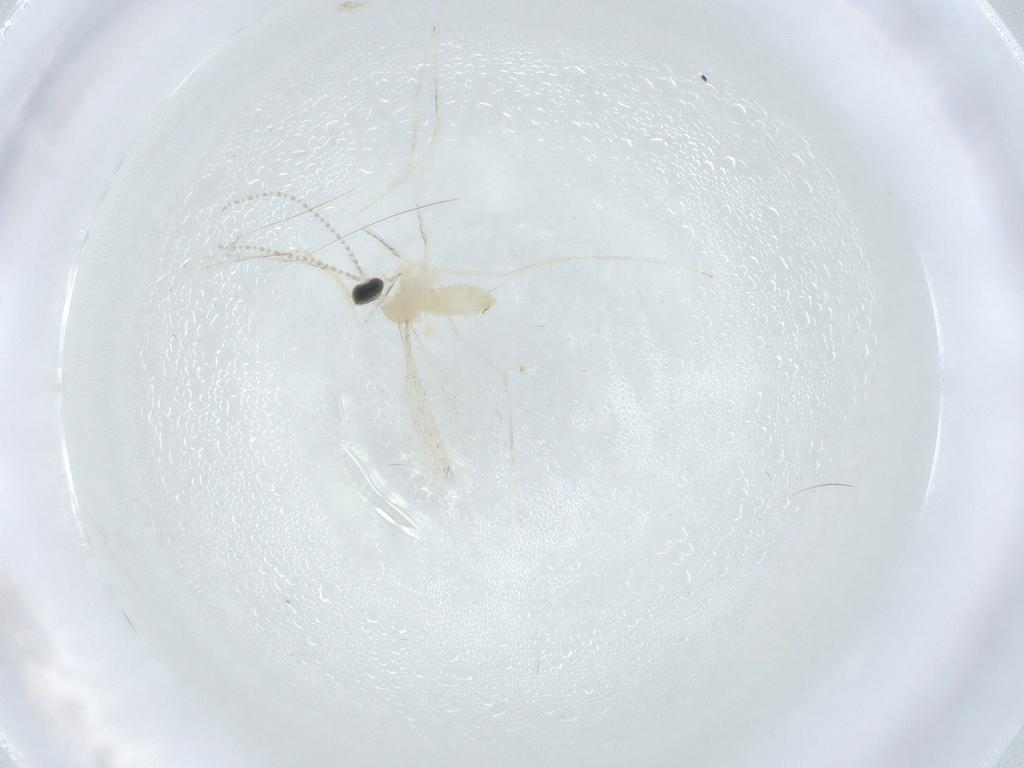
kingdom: Animalia
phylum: Arthropoda
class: Insecta
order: Diptera
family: Cecidomyiidae
